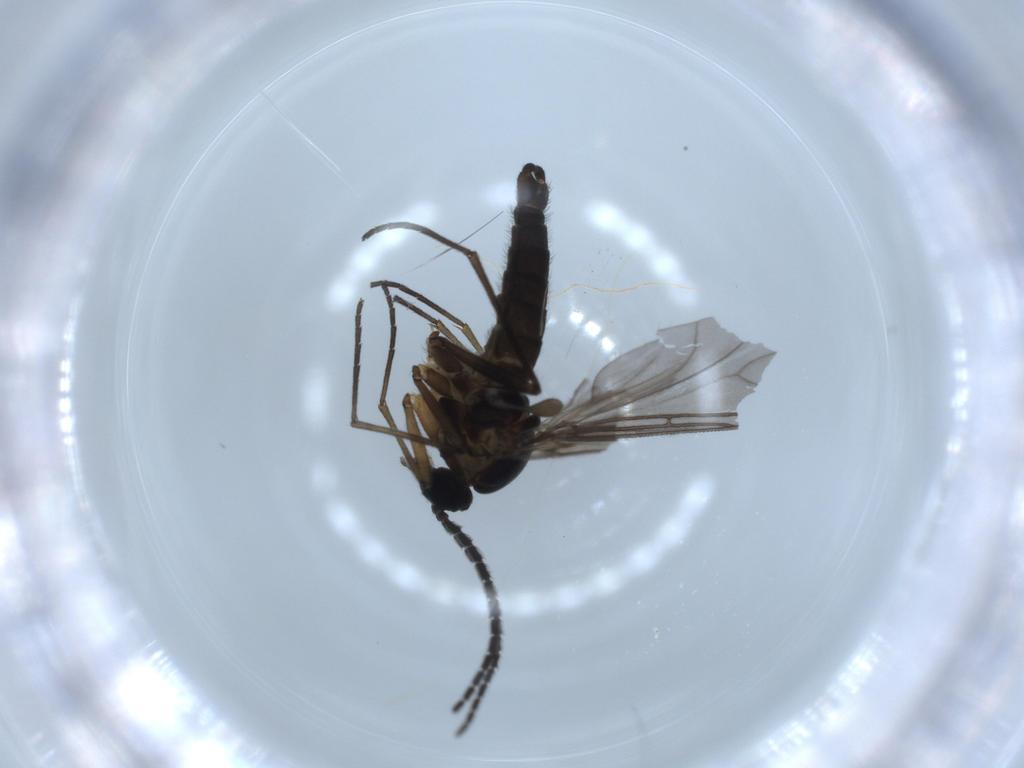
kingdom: Animalia
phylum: Arthropoda
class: Insecta
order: Diptera
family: Sciaridae
